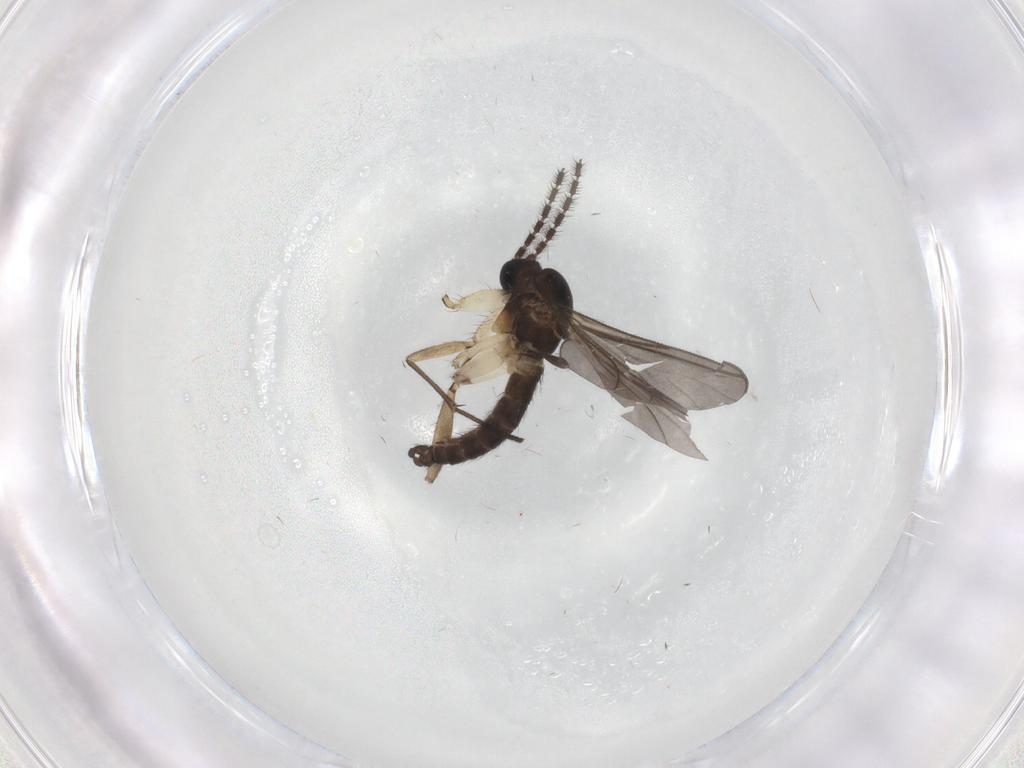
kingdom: Animalia
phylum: Arthropoda
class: Insecta
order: Diptera
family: Sciaridae
